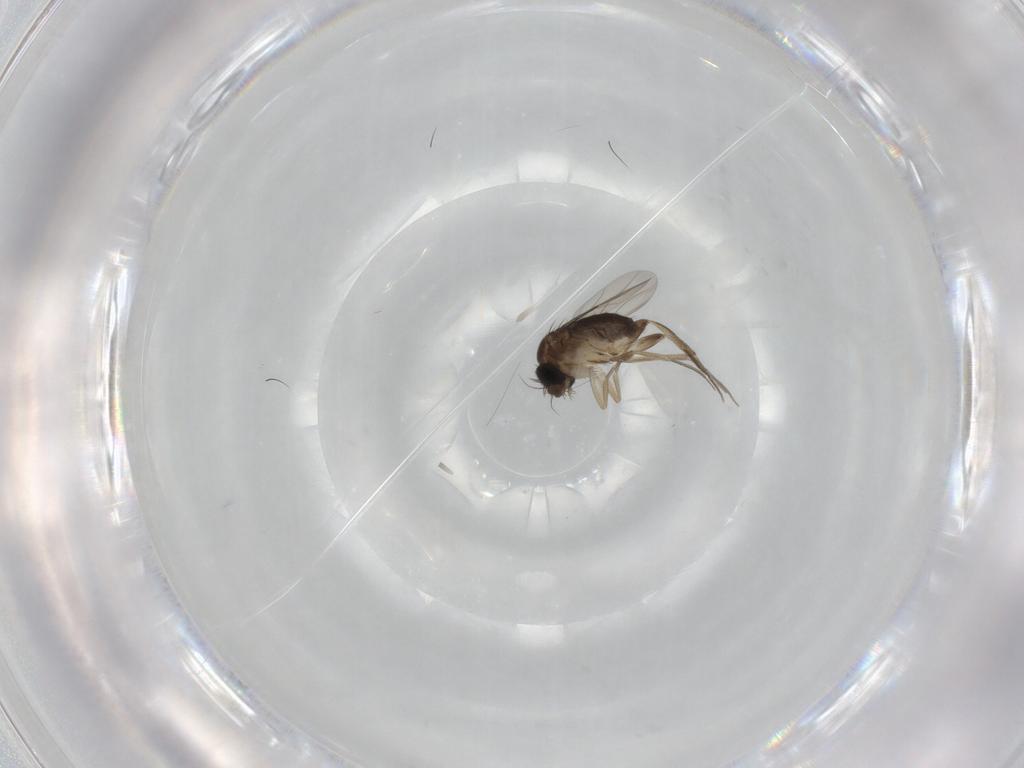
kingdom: Animalia
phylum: Arthropoda
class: Insecta
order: Diptera
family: Phoridae
